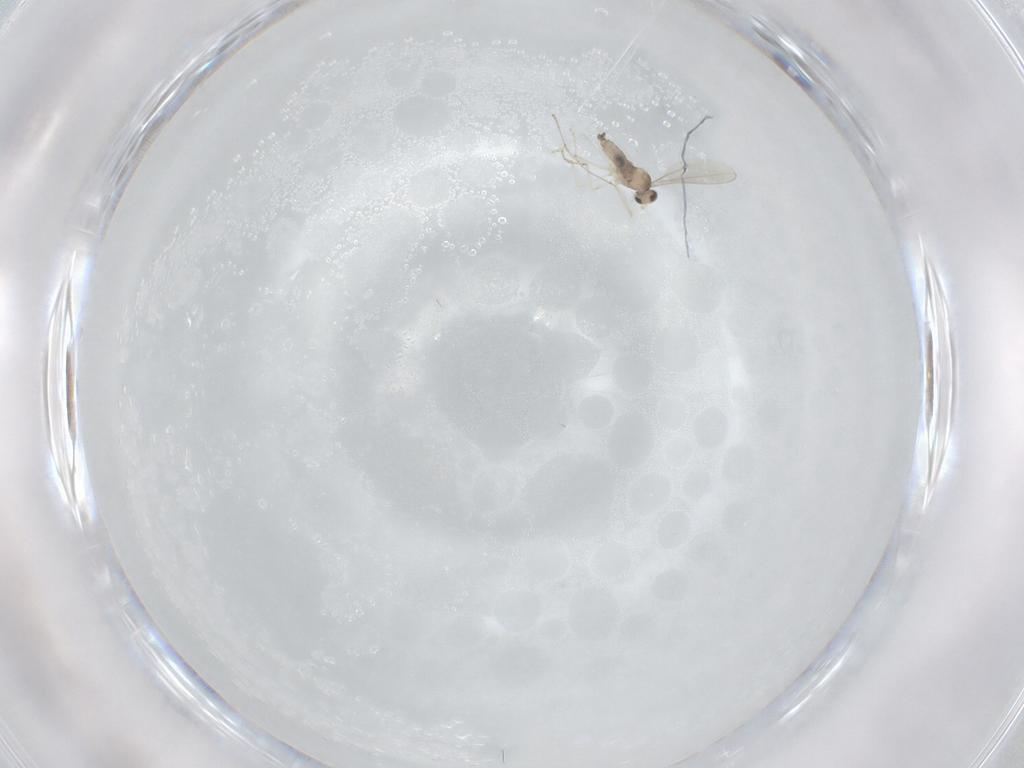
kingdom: Animalia
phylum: Arthropoda
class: Insecta
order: Diptera
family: Cecidomyiidae
